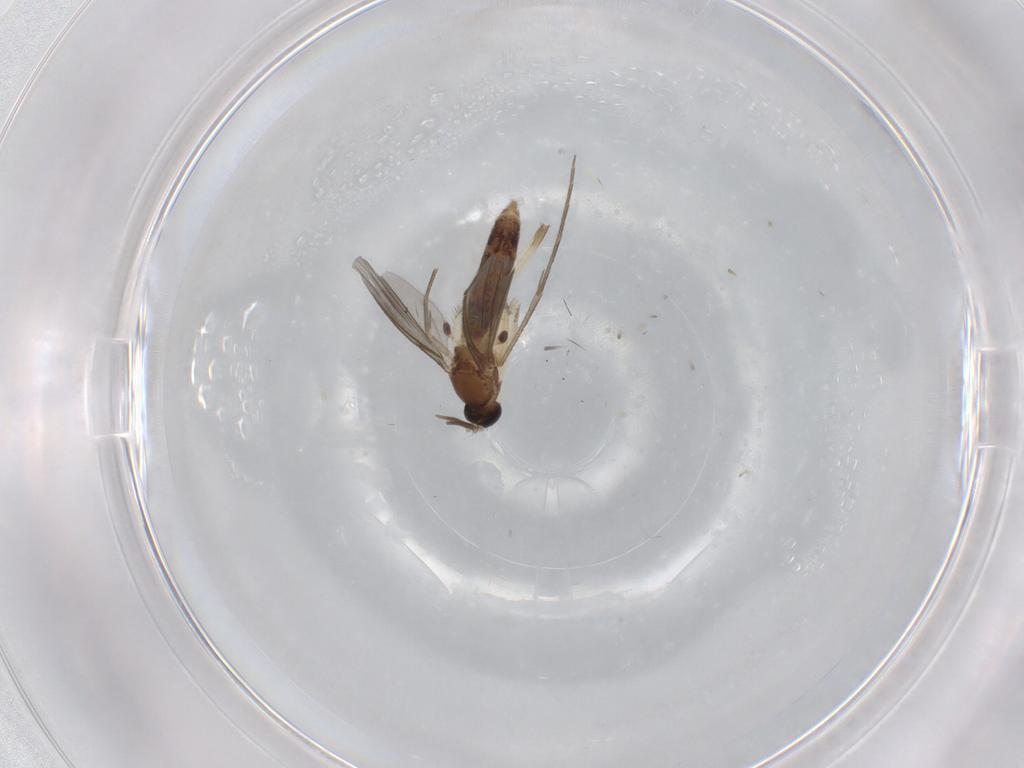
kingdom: Animalia
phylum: Arthropoda
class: Insecta
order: Diptera
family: Mycetophilidae
